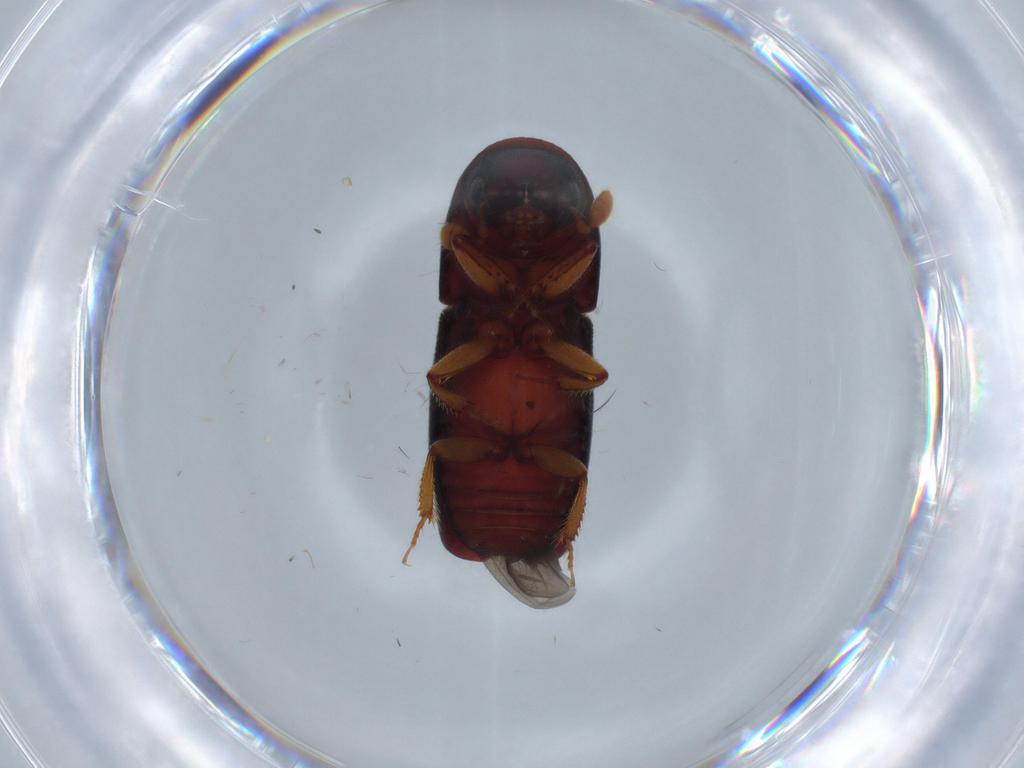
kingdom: Animalia
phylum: Arthropoda
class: Insecta
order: Coleoptera
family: Curculionidae
